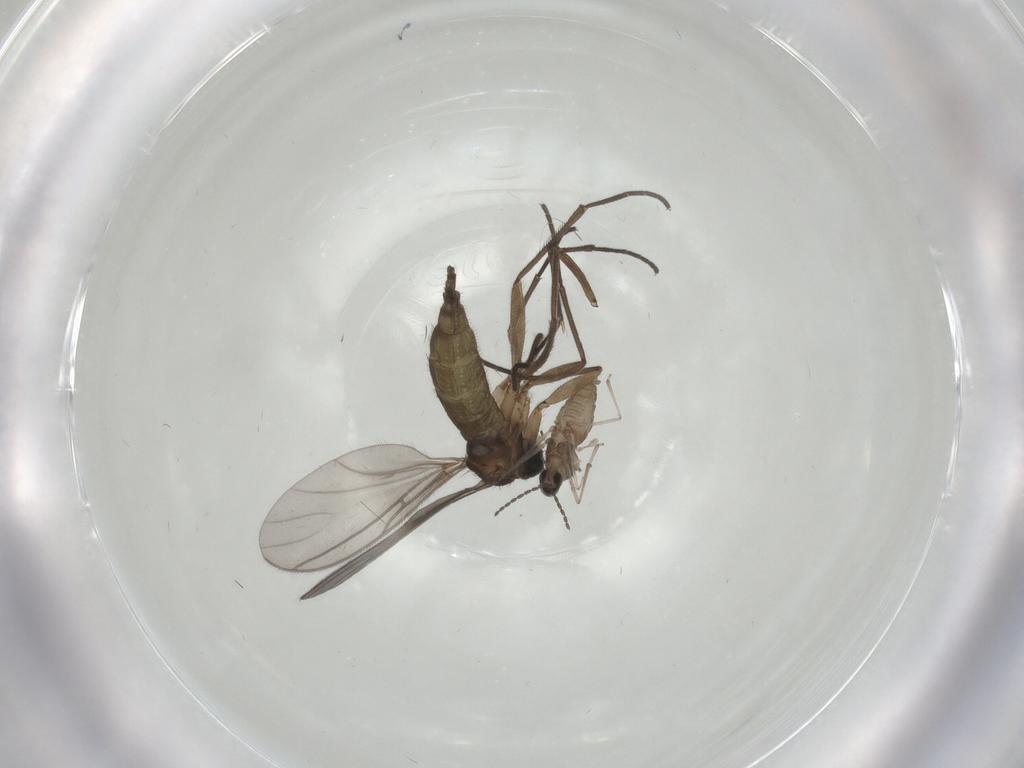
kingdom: Animalia
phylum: Arthropoda
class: Insecta
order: Diptera
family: Sciaridae
